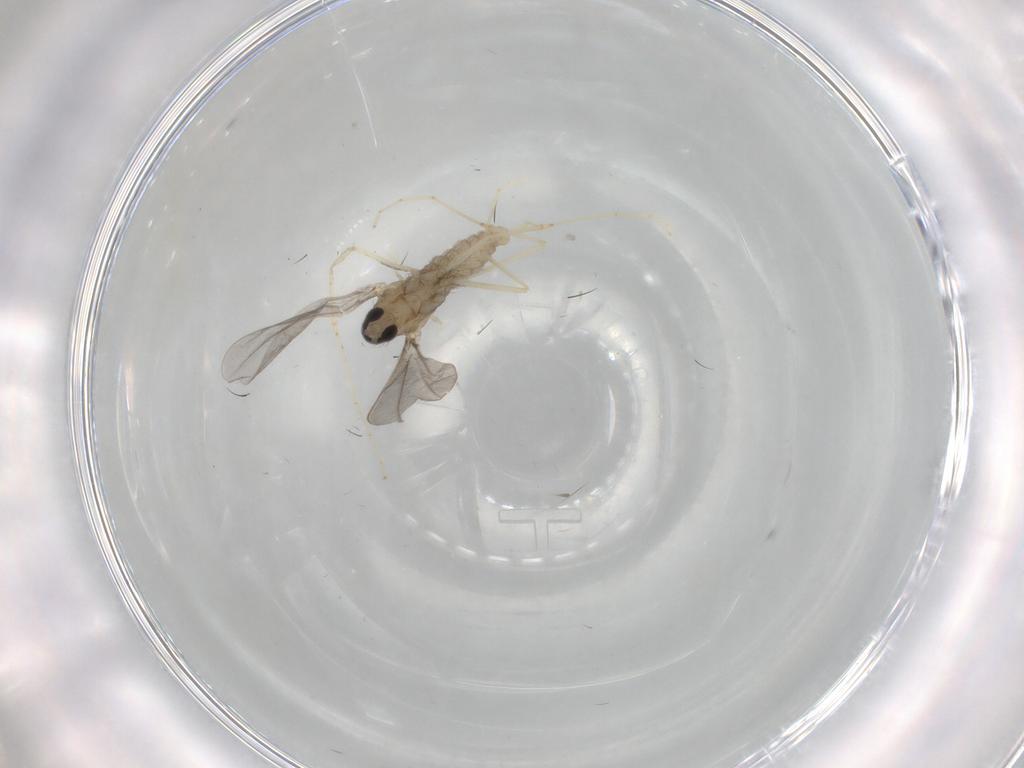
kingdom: Animalia
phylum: Arthropoda
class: Insecta
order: Diptera
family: Cecidomyiidae
